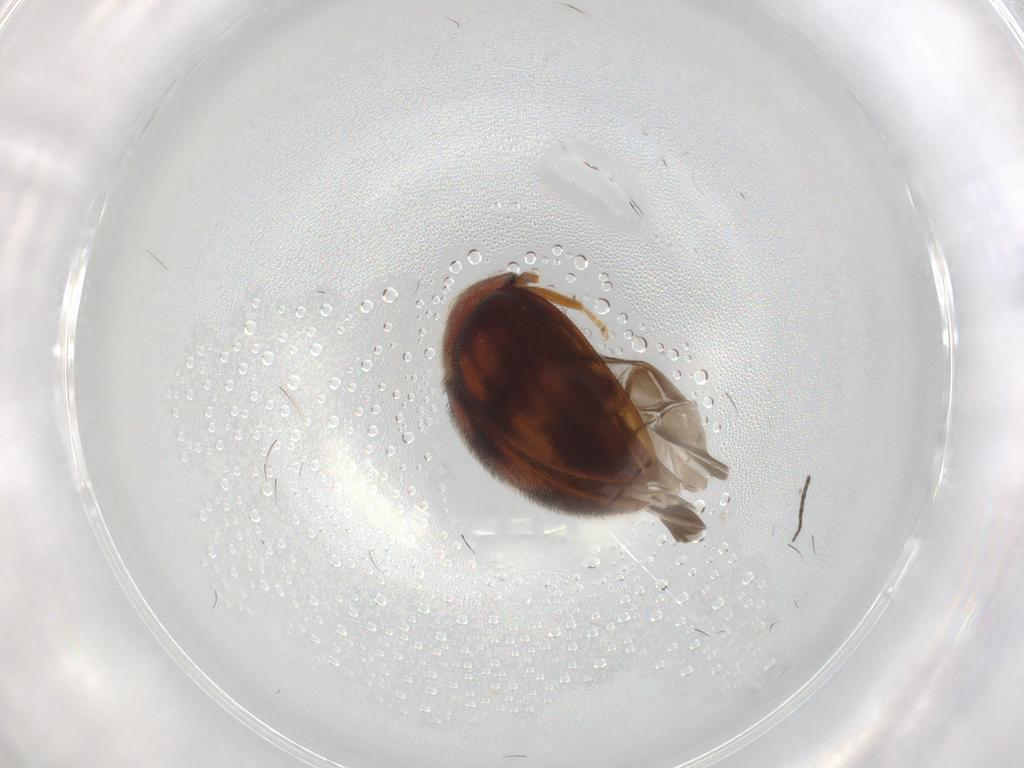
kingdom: Animalia
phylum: Arthropoda
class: Insecta
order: Coleoptera
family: Scirtidae
